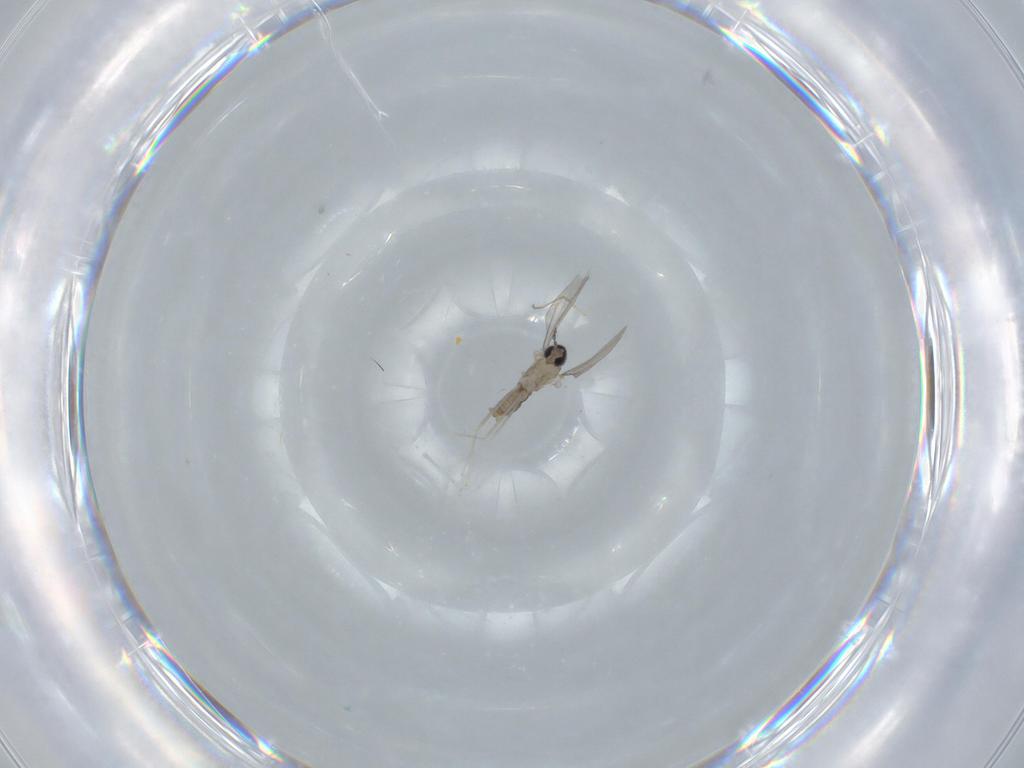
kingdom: Animalia
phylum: Arthropoda
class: Insecta
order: Diptera
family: Cecidomyiidae
